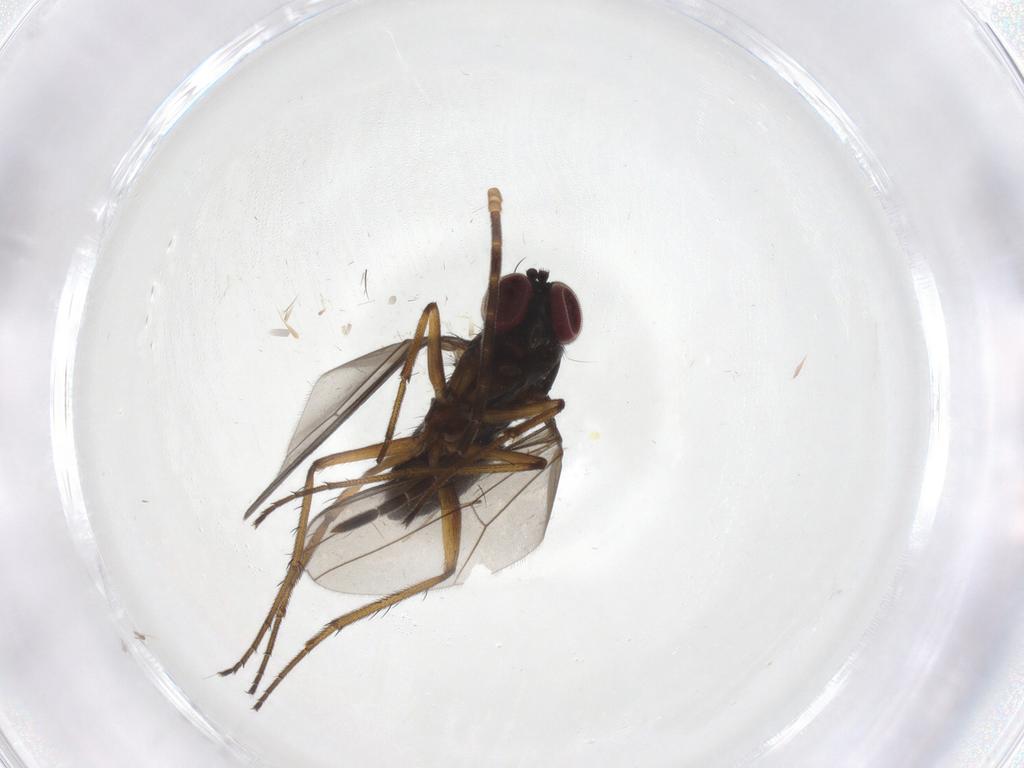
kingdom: Animalia
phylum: Arthropoda
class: Insecta
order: Diptera
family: Dolichopodidae
